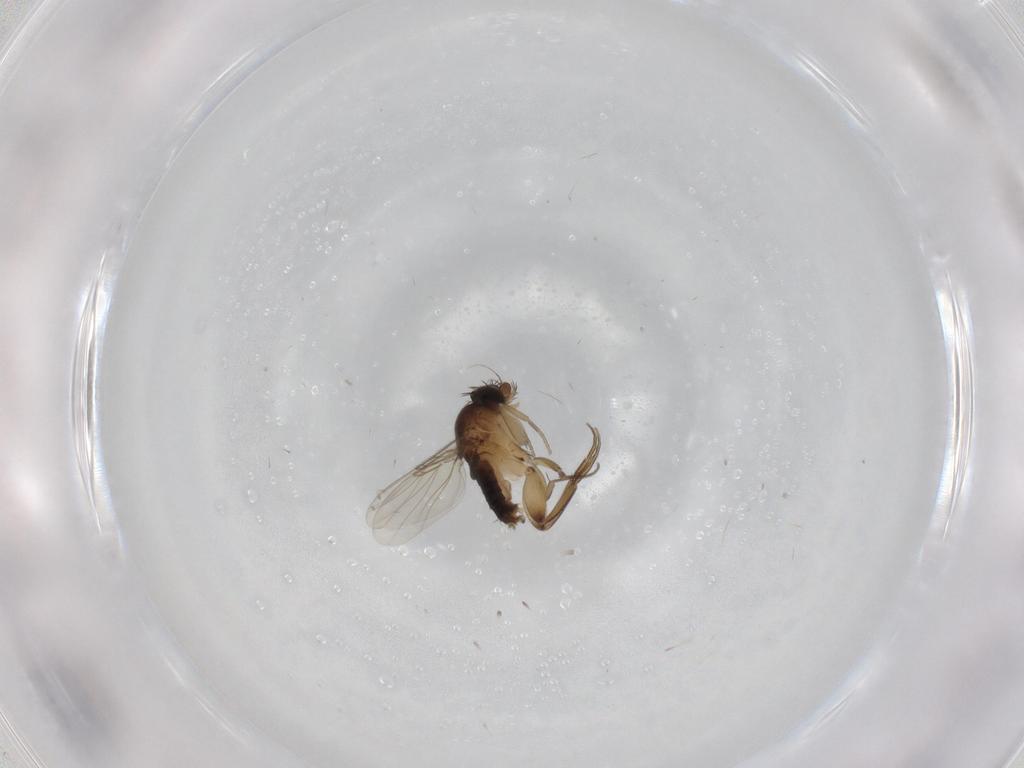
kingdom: Animalia
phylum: Arthropoda
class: Insecta
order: Diptera
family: Phoridae
